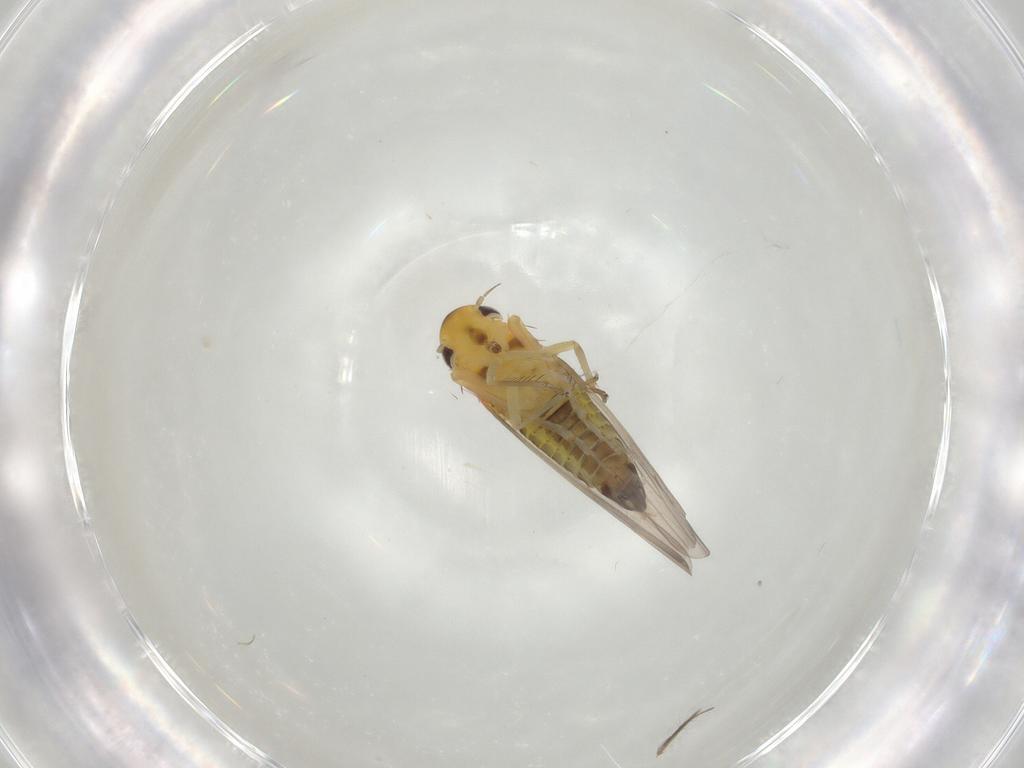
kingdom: Animalia
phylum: Arthropoda
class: Insecta
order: Hemiptera
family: Cicadellidae
